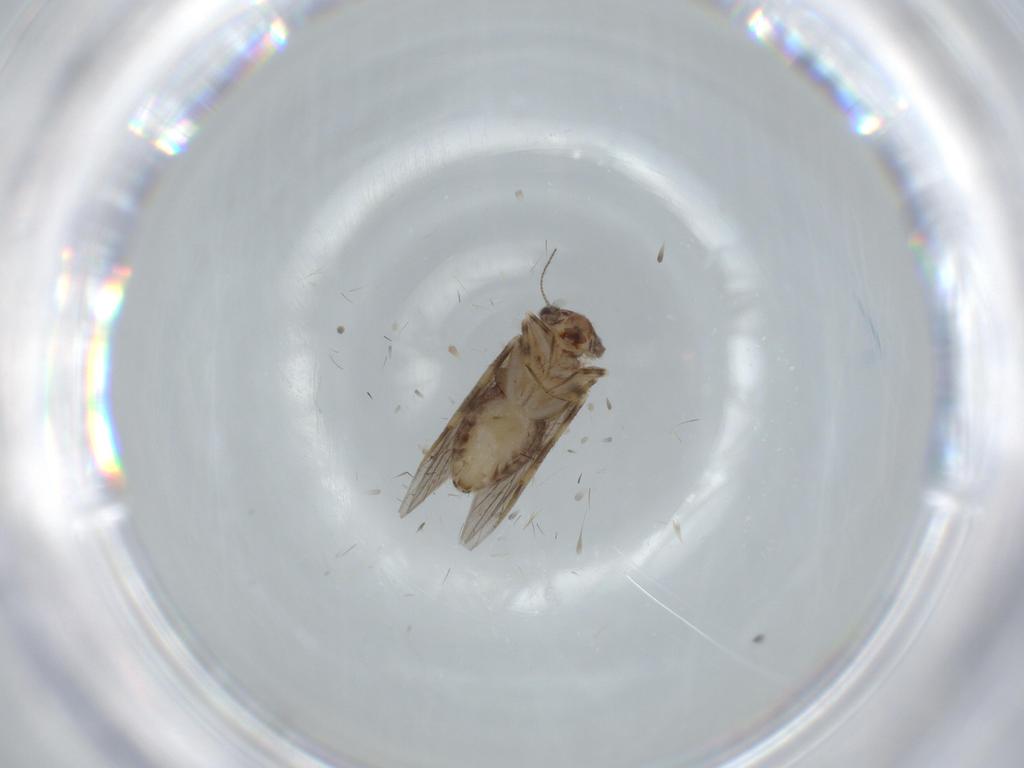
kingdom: Animalia
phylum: Arthropoda
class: Insecta
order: Psocodea
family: Lepidopsocidae
